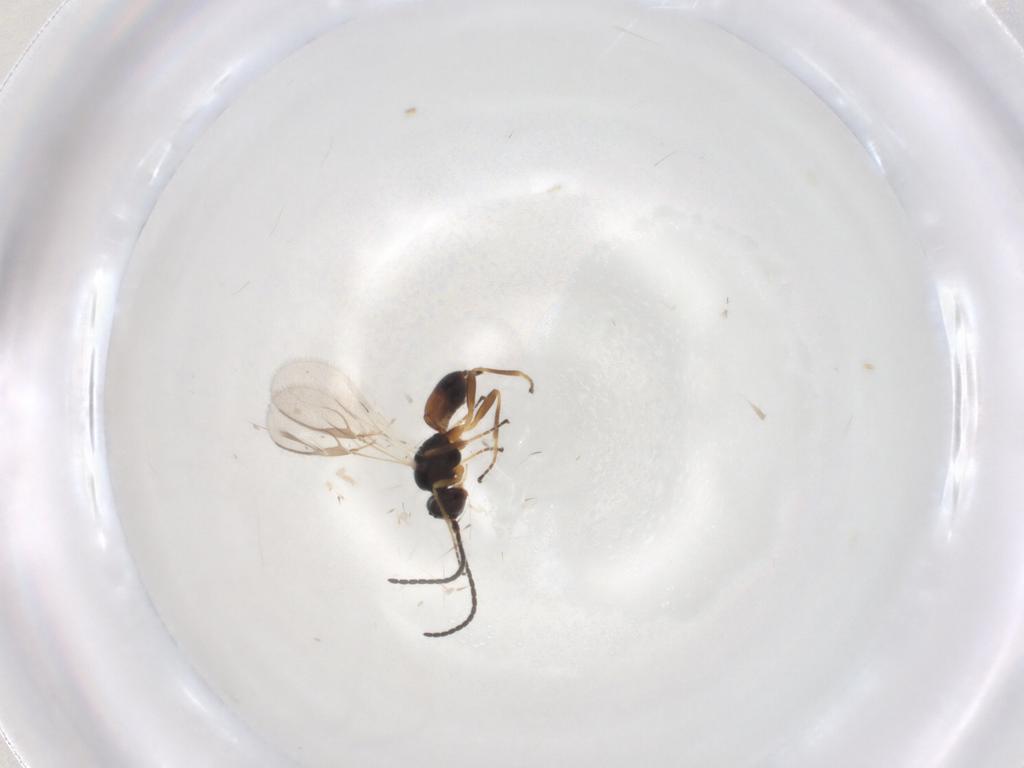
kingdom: Animalia
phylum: Arthropoda
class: Insecta
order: Hymenoptera
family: Braconidae
